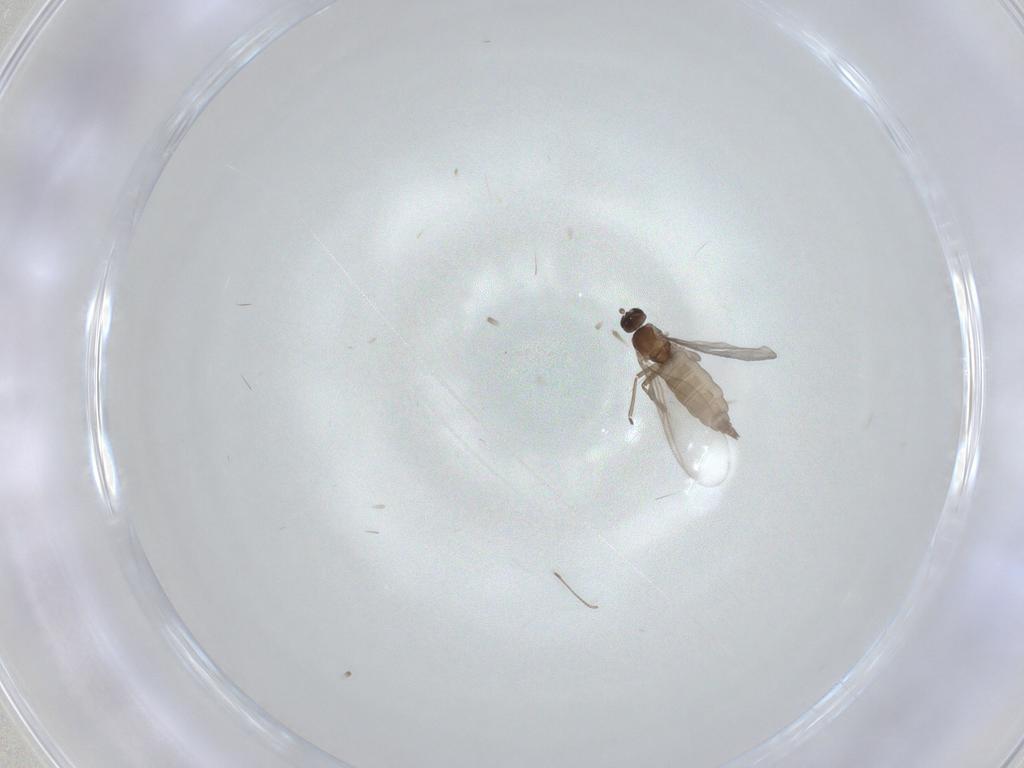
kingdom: Animalia
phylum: Arthropoda
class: Insecta
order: Diptera
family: Chironomidae
